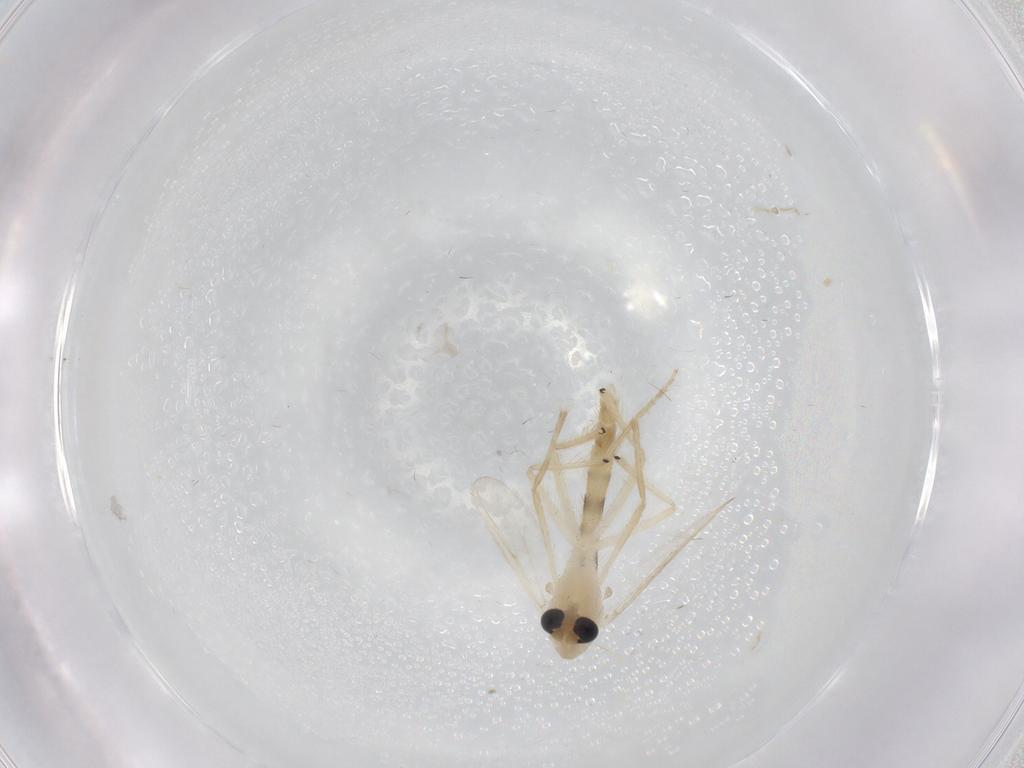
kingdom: Animalia
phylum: Arthropoda
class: Insecta
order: Diptera
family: Chironomidae
